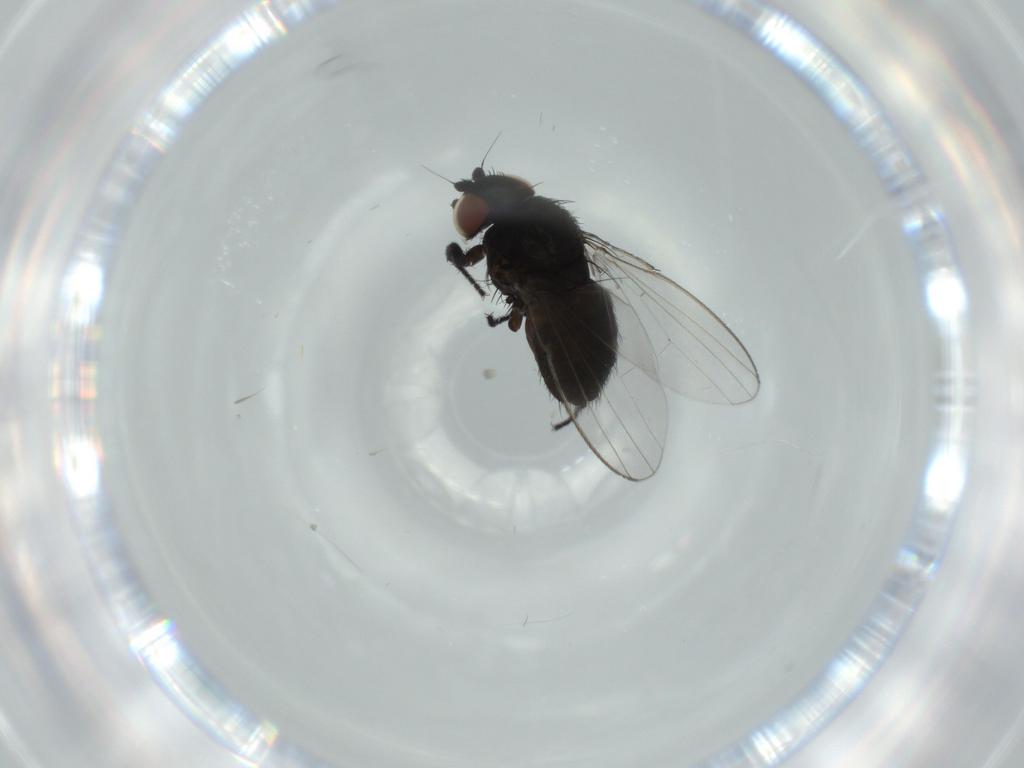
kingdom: Animalia
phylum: Arthropoda
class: Insecta
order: Diptera
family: Milichiidae
